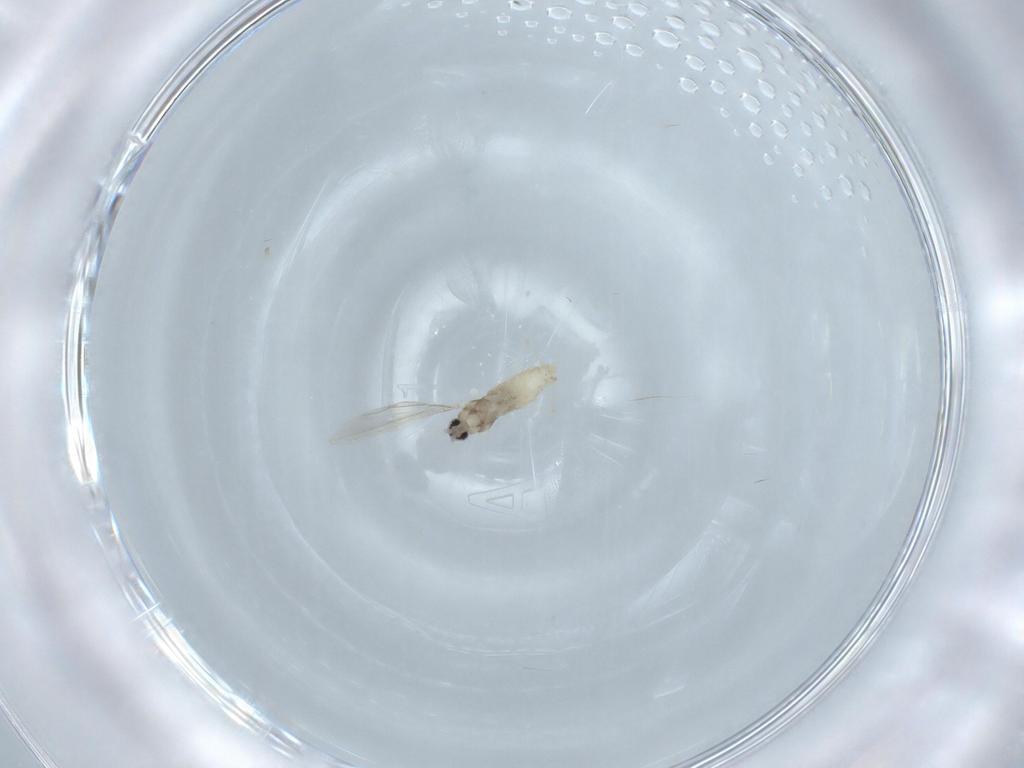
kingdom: Animalia
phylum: Arthropoda
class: Insecta
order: Diptera
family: Cecidomyiidae
